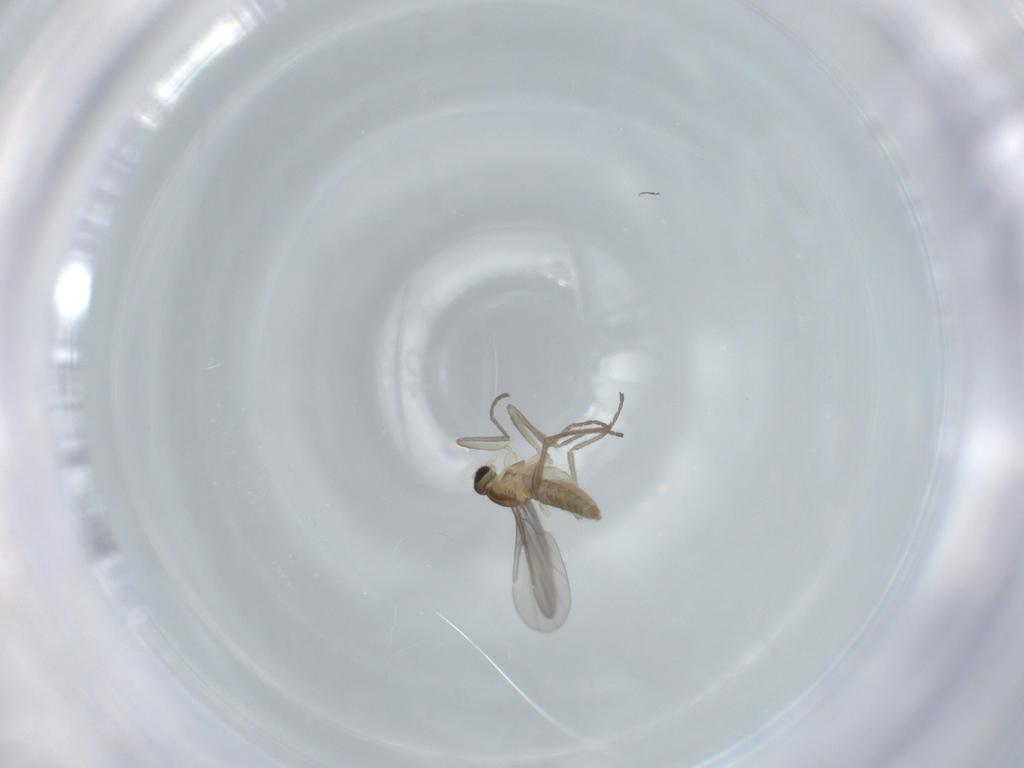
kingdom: Animalia
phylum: Arthropoda
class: Insecta
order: Diptera
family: Cecidomyiidae
